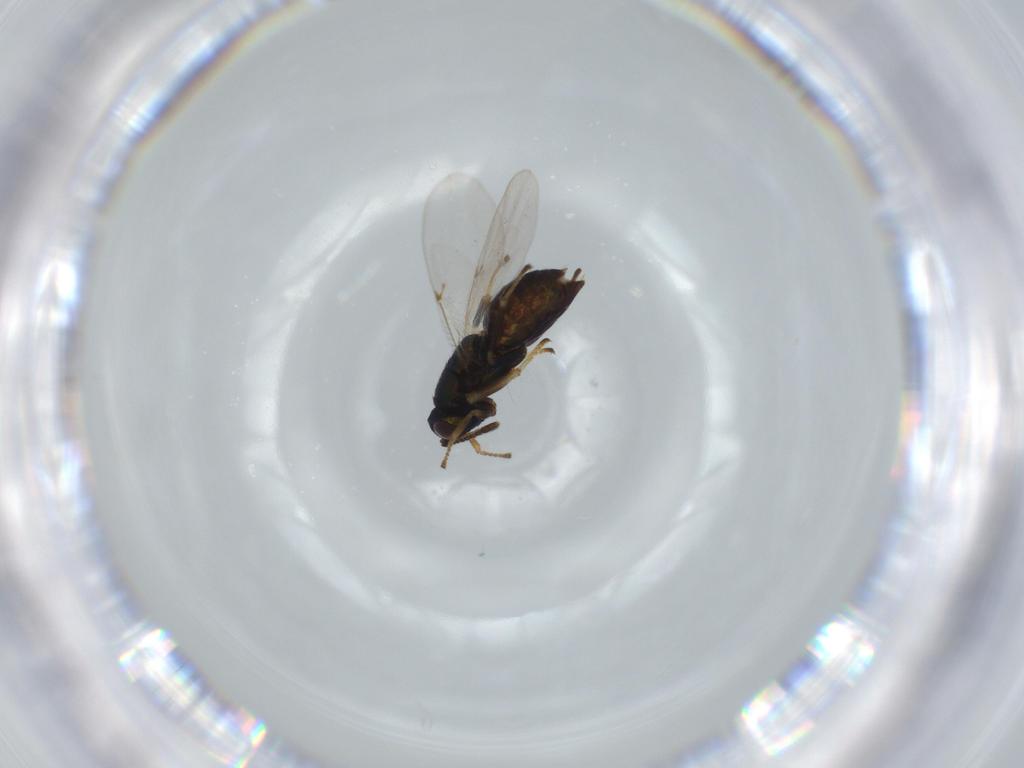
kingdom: Animalia
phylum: Arthropoda
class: Insecta
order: Hymenoptera
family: Encyrtidae
